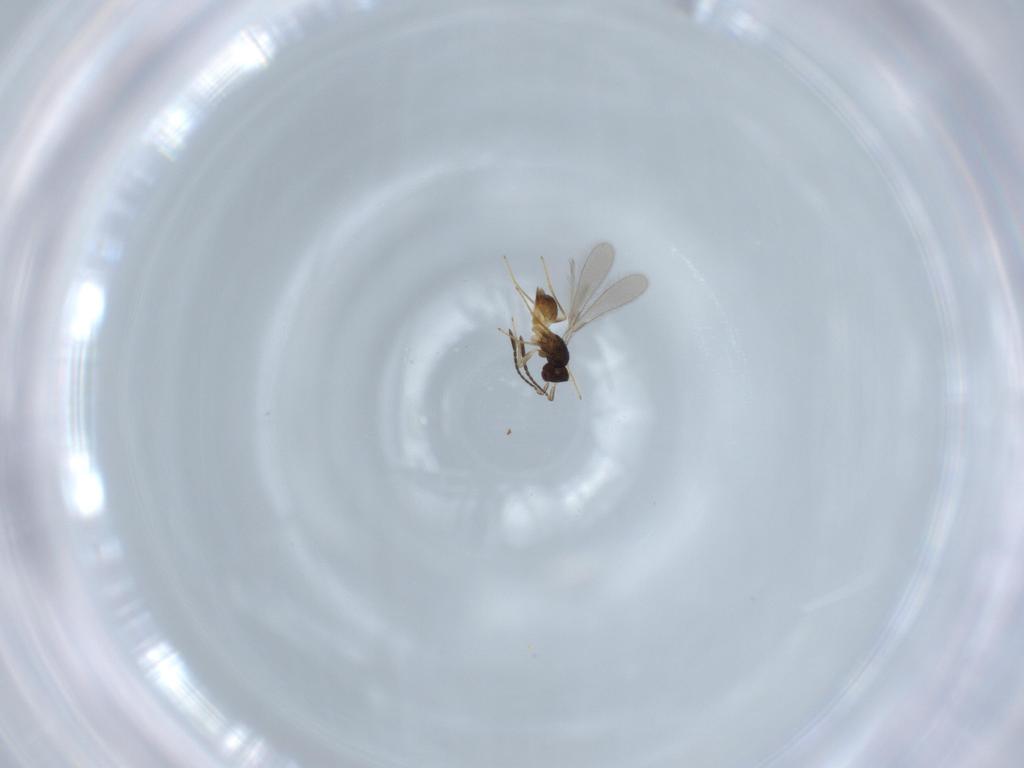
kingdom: Animalia
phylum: Arthropoda
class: Insecta
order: Hymenoptera
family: Mymaridae
